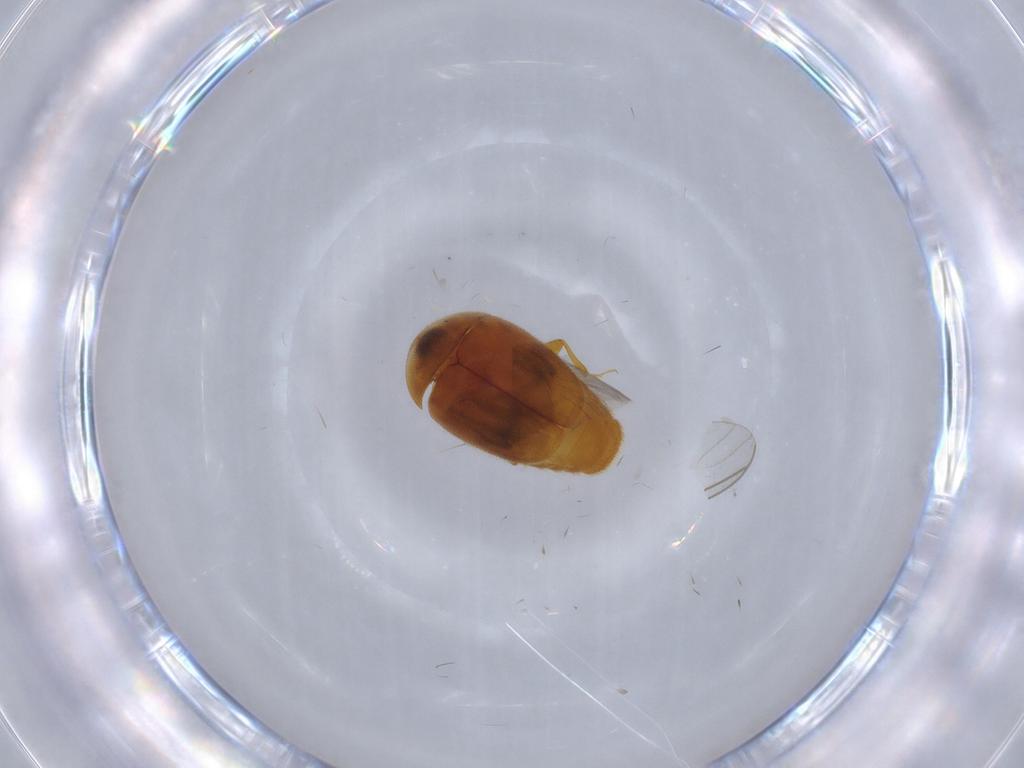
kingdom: Animalia
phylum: Arthropoda
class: Insecta
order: Coleoptera
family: Corylophidae
